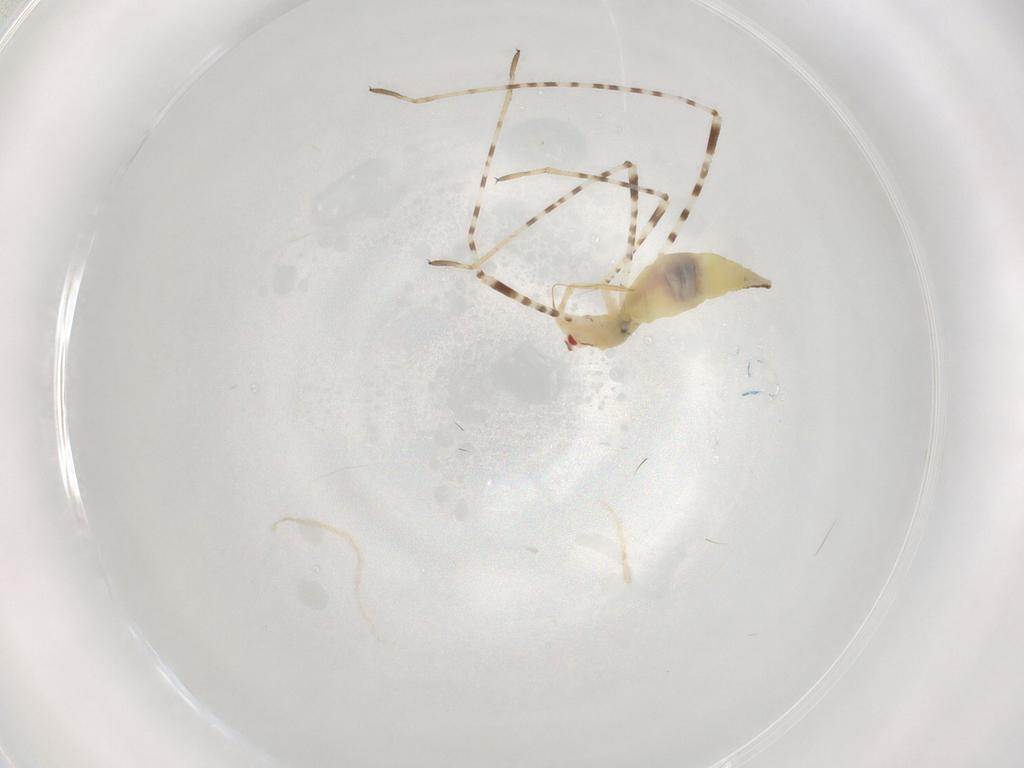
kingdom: Animalia
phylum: Arthropoda
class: Insecta
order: Hemiptera
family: Berytidae
